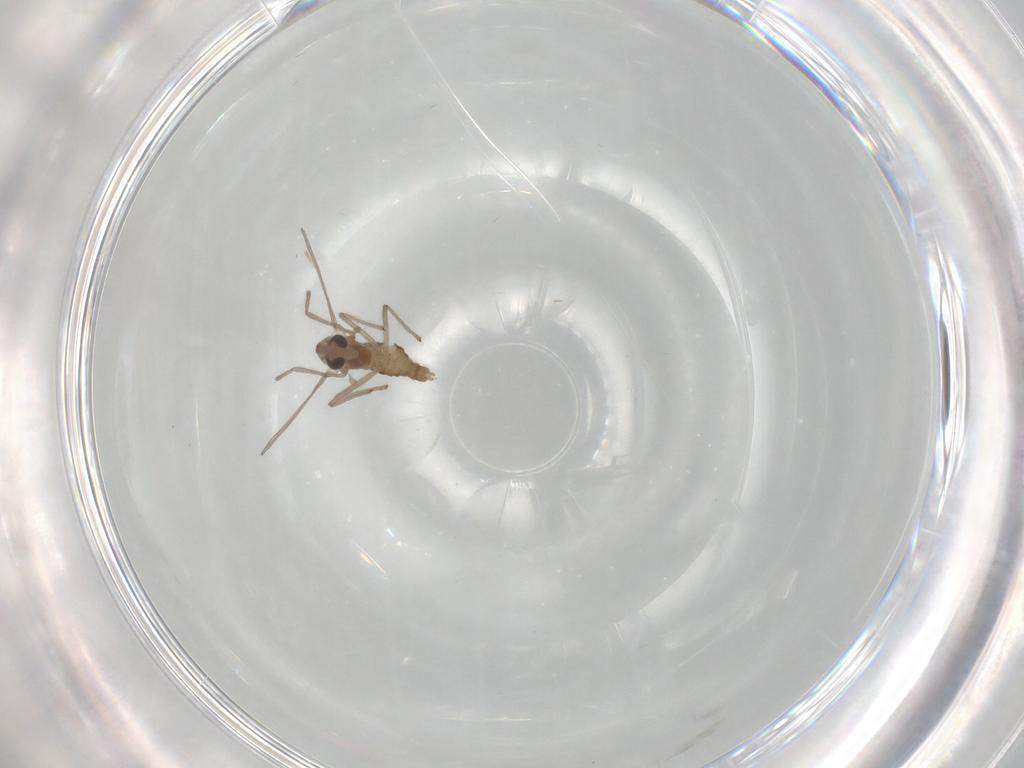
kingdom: Animalia
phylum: Arthropoda
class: Insecta
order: Diptera
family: Chironomidae
